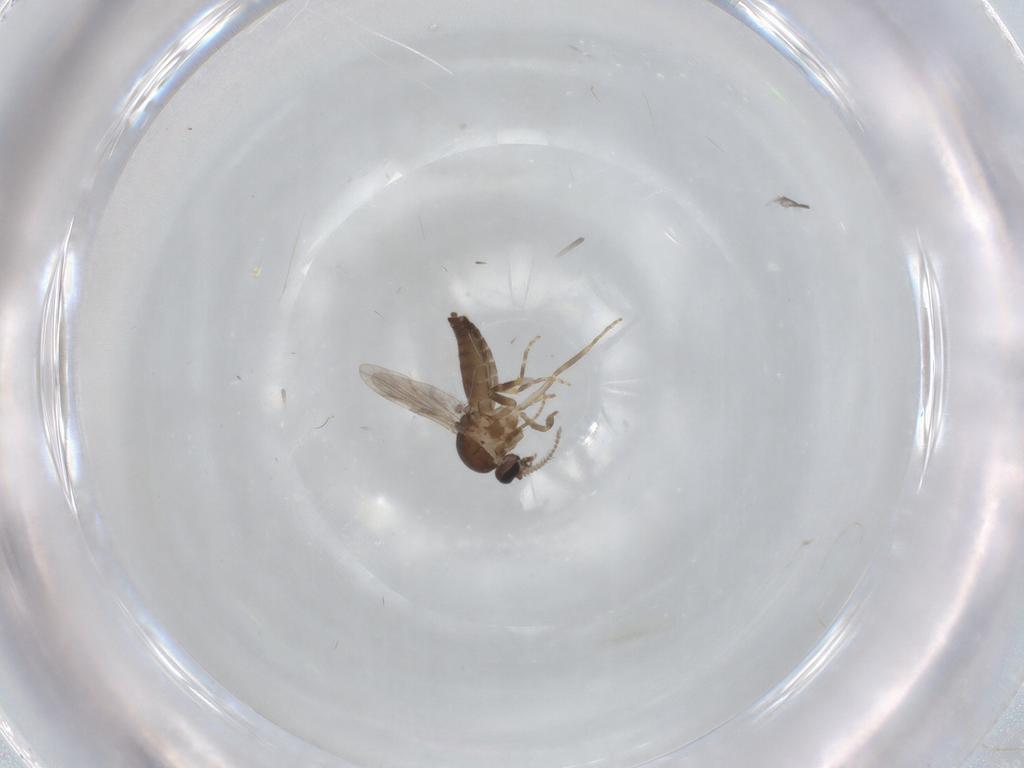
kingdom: Animalia
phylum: Arthropoda
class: Insecta
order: Diptera
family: Ceratopogonidae
